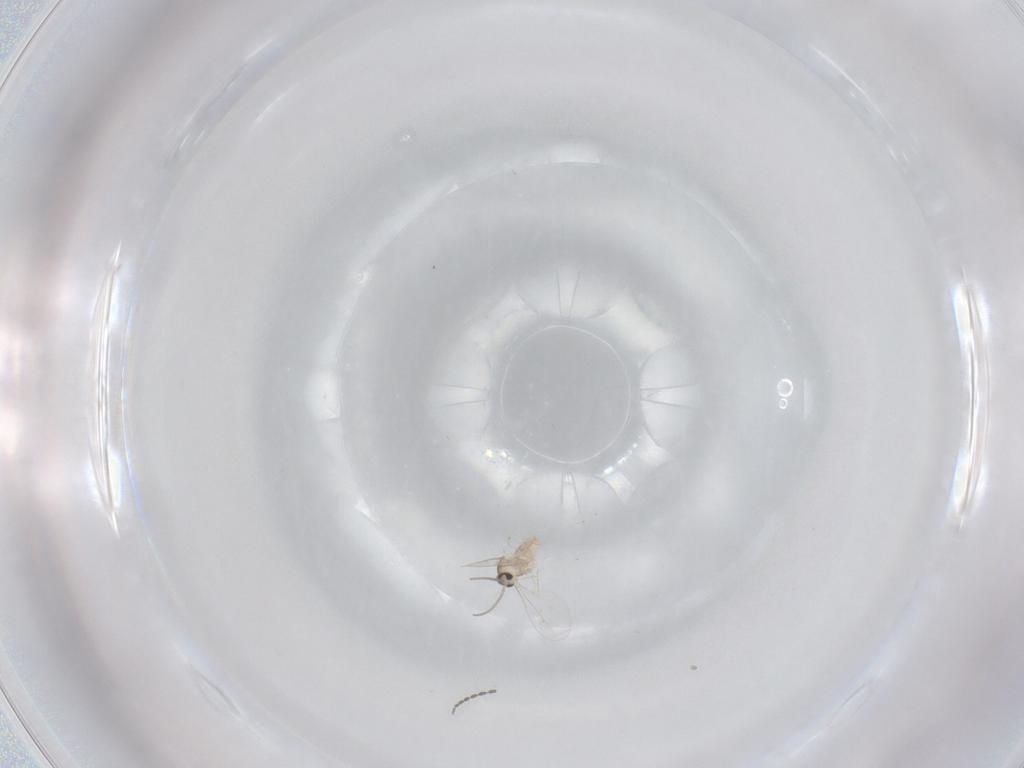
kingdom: Animalia
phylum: Arthropoda
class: Insecta
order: Diptera
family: Cecidomyiidae
